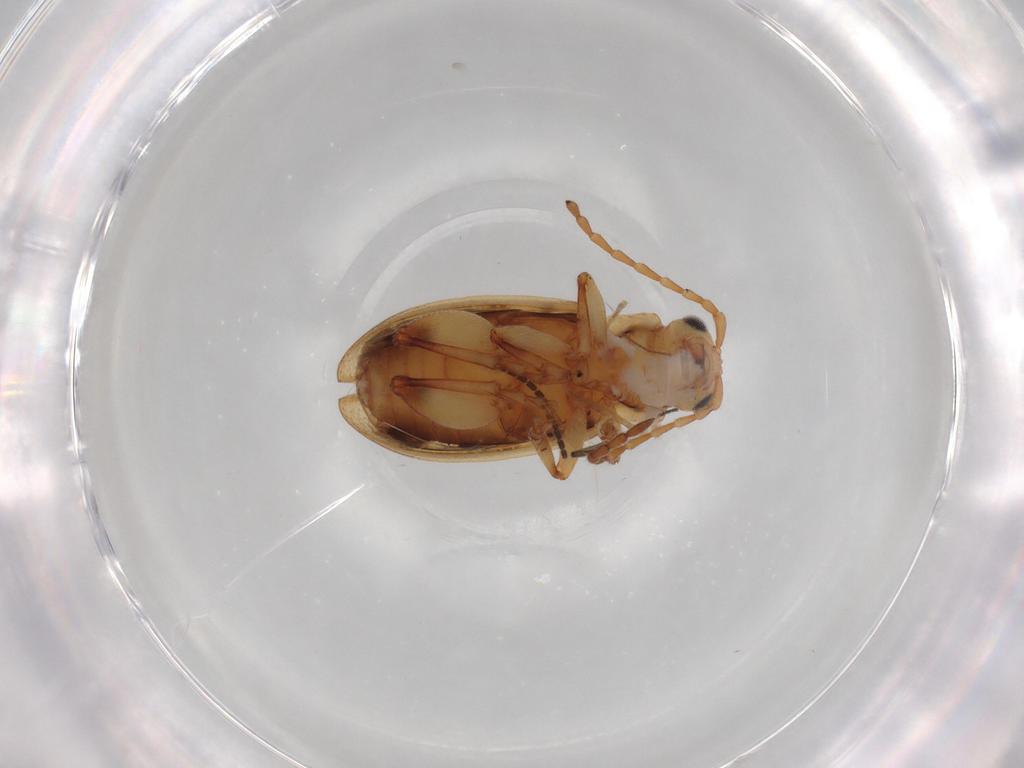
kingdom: Animalia
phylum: Arthropoda
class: Insecta
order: Coleoptera
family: Chrysomelidae
